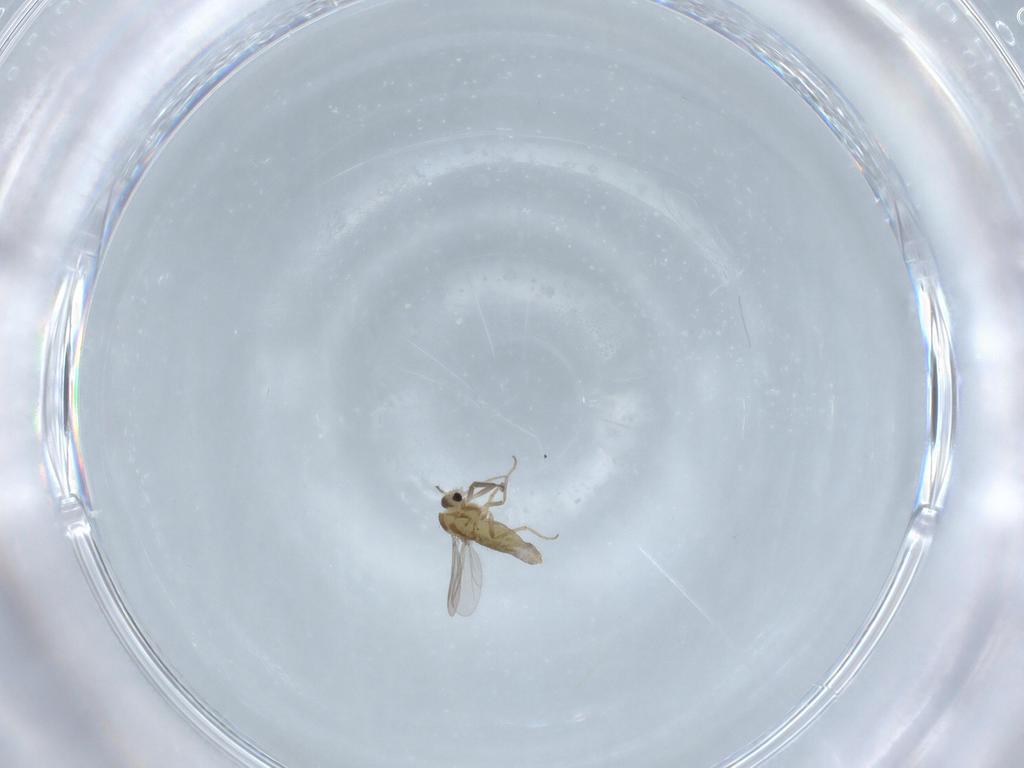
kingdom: Animalia
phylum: Arthropoda
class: Insecta
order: Diptera
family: Chironomidae
